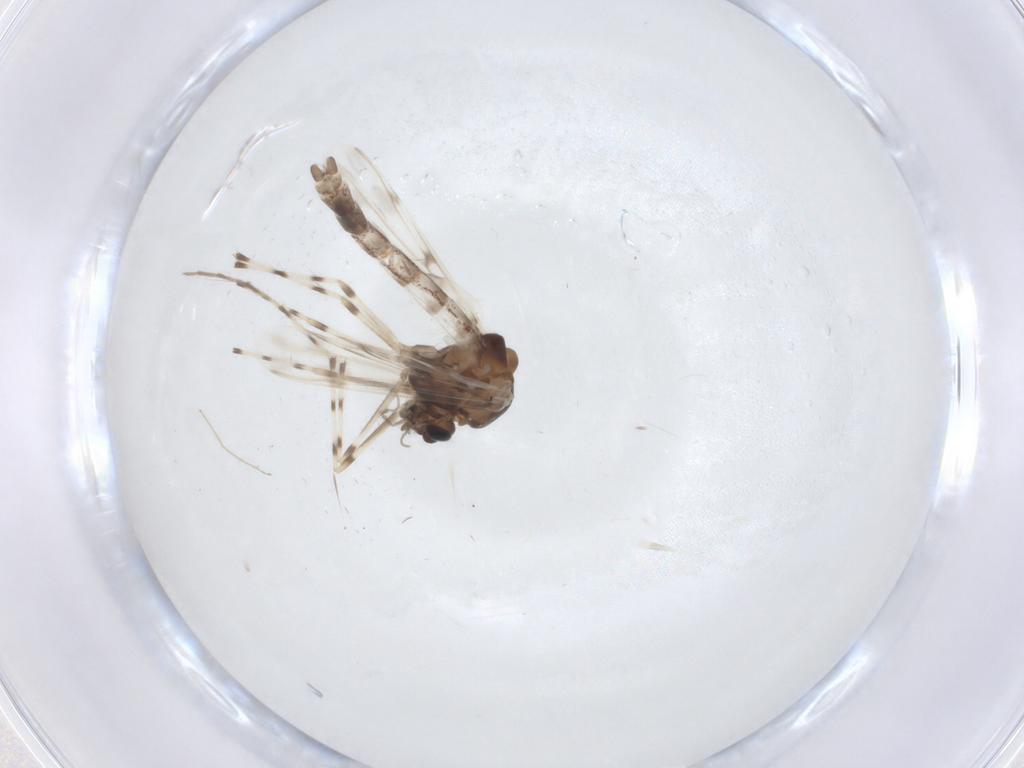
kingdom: Animalia
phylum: Arthropoda
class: Insecta
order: Diptera
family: Chironomidae
